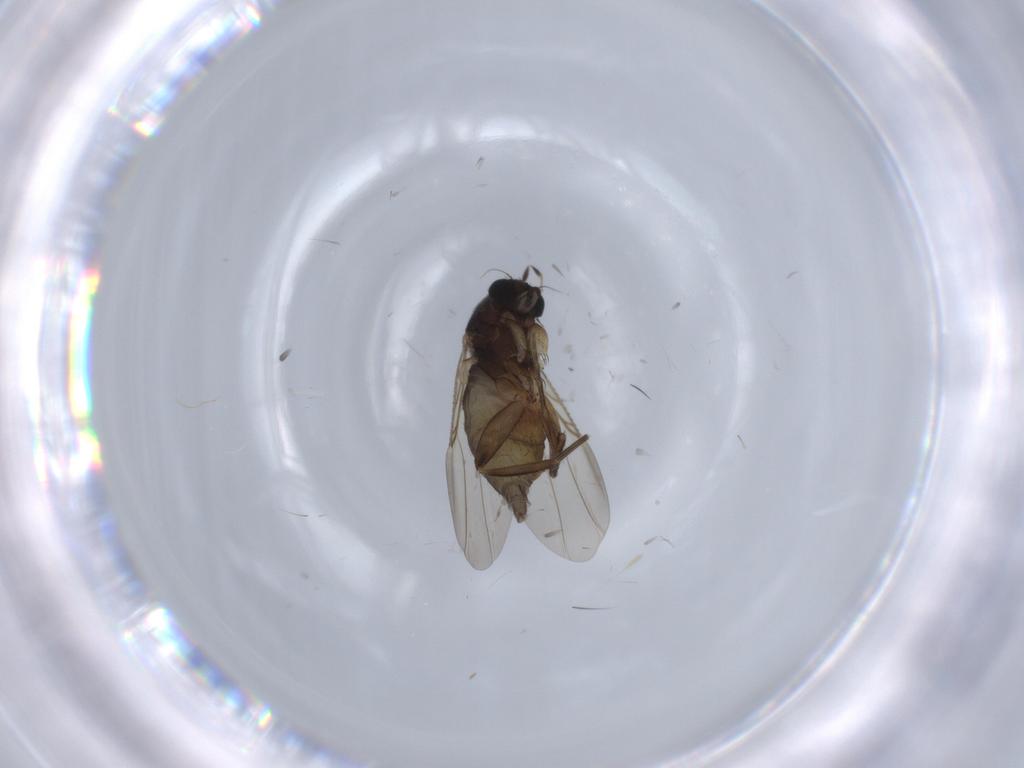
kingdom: Animalia
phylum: Arthropoda
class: Insecta
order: Diptera
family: Phoridae
